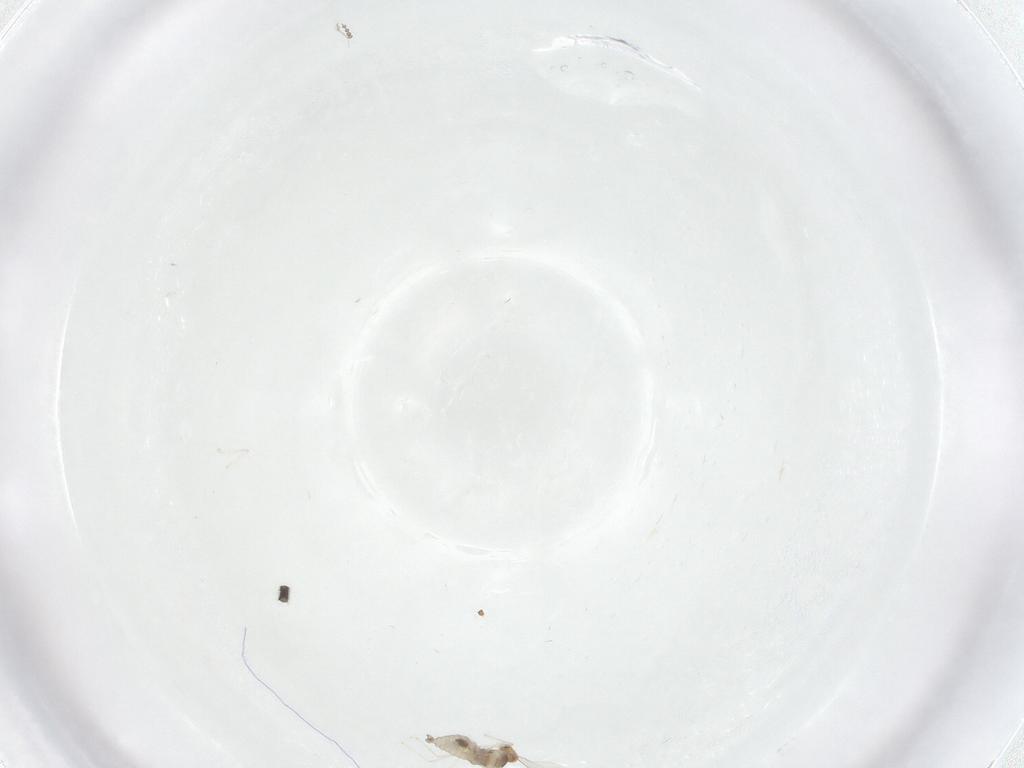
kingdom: Animalia
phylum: Arthropoda
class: Insecta
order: Diptera
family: Cecidomyiidae
